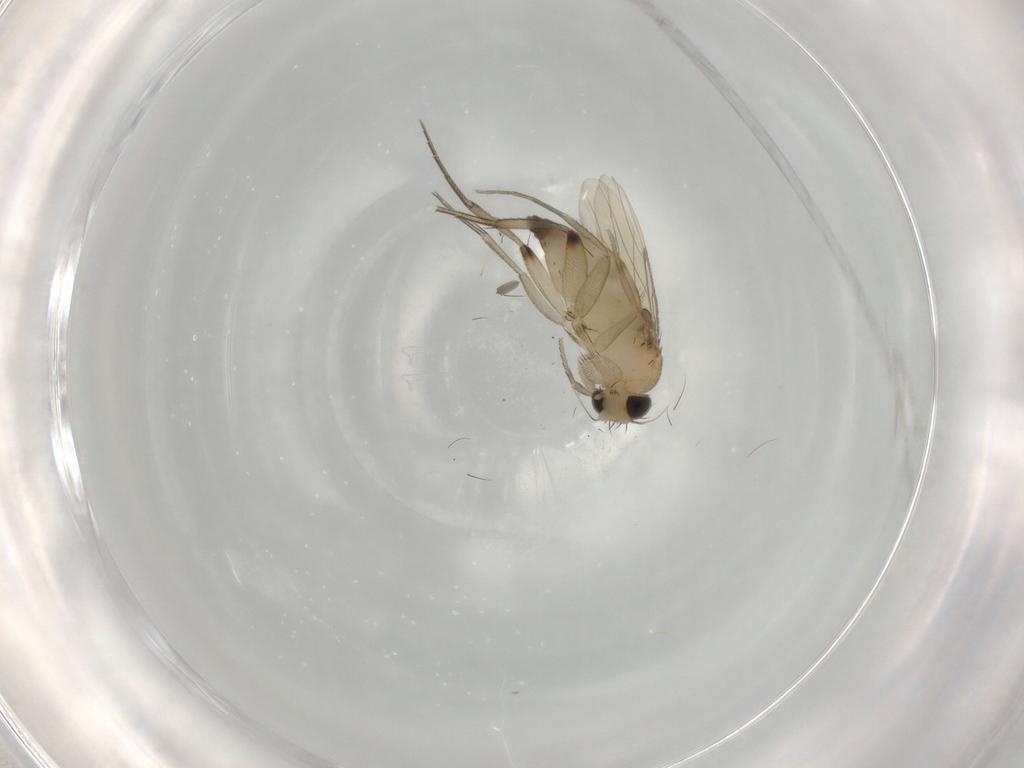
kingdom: Animalia
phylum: Arthropoda
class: Insecta
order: Diptera
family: Cecidomyiidae
